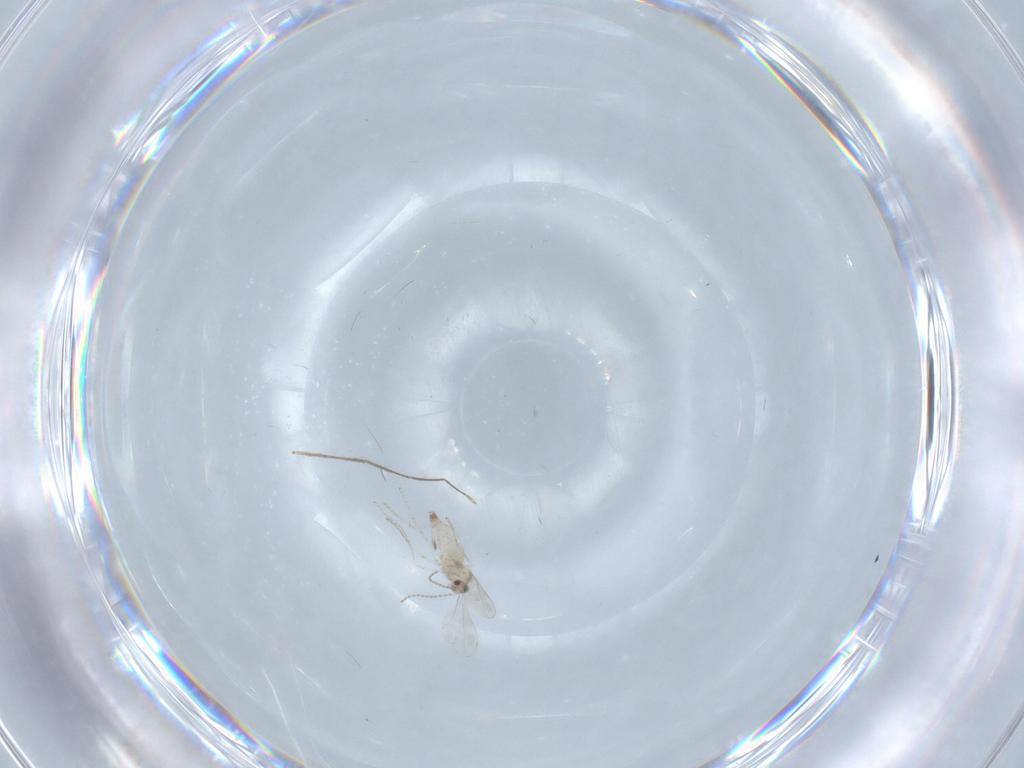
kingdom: Animalia
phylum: Arthropoda
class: Insecta
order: Diptera
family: Cecidomyiidae
